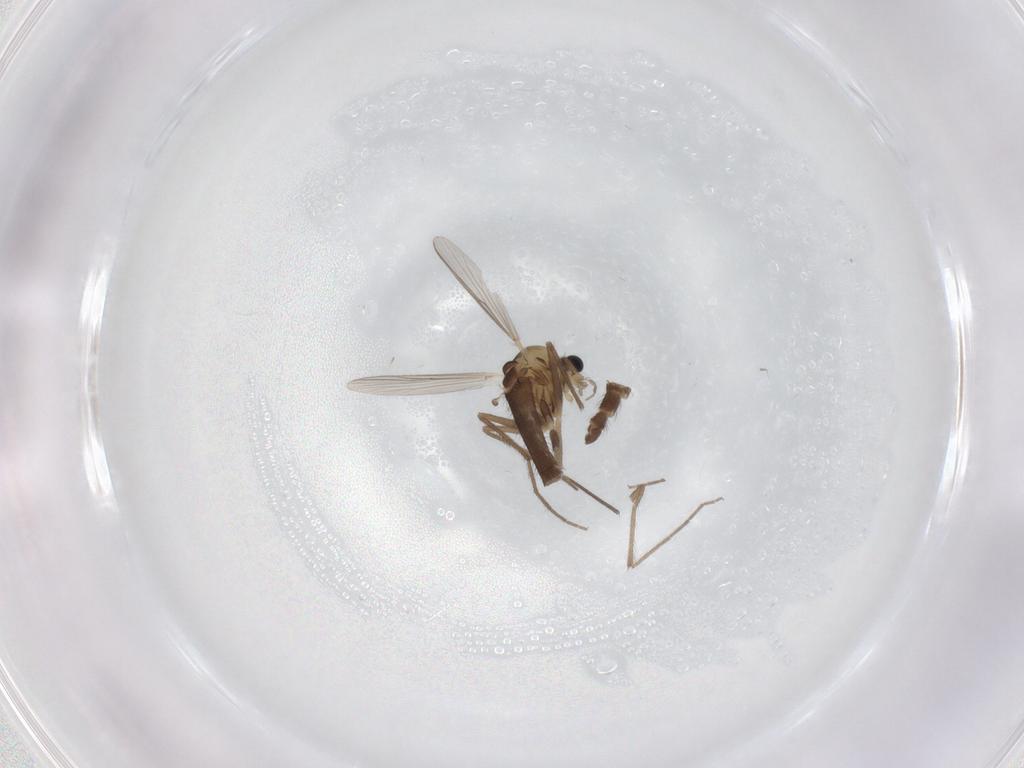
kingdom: Animalia
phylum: Arthropoda
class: Insecta
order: Diptera
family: Chironomidae
